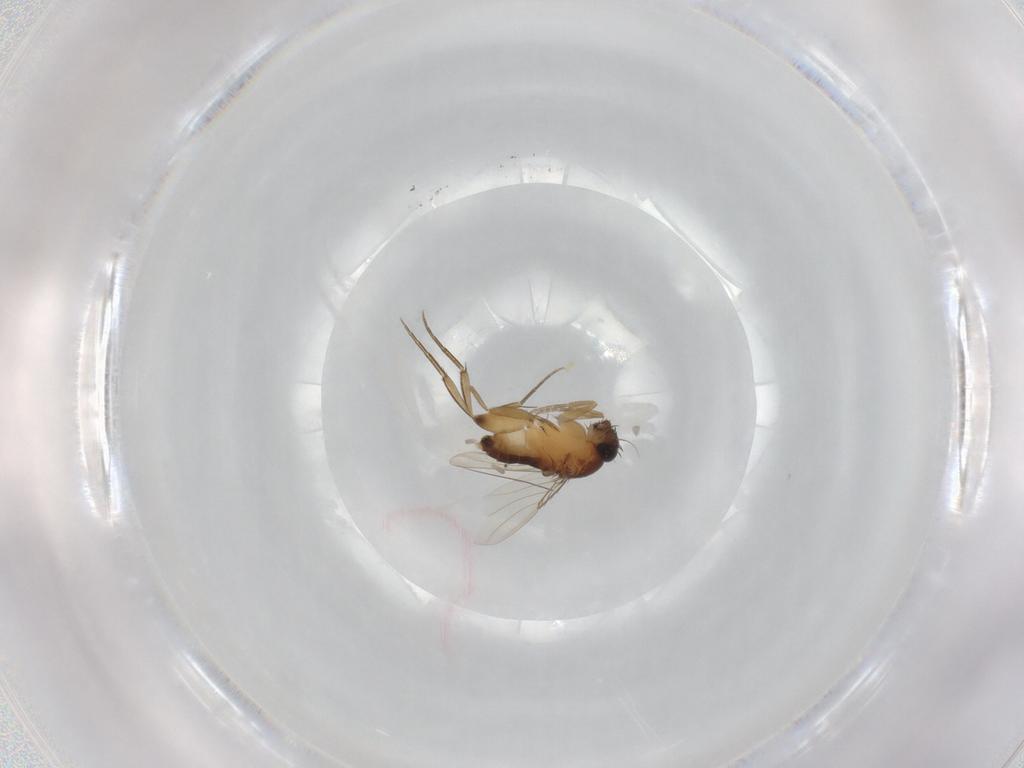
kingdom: Animalia
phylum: Arthropoda
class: Insecta
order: Diptera
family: Phoridae
